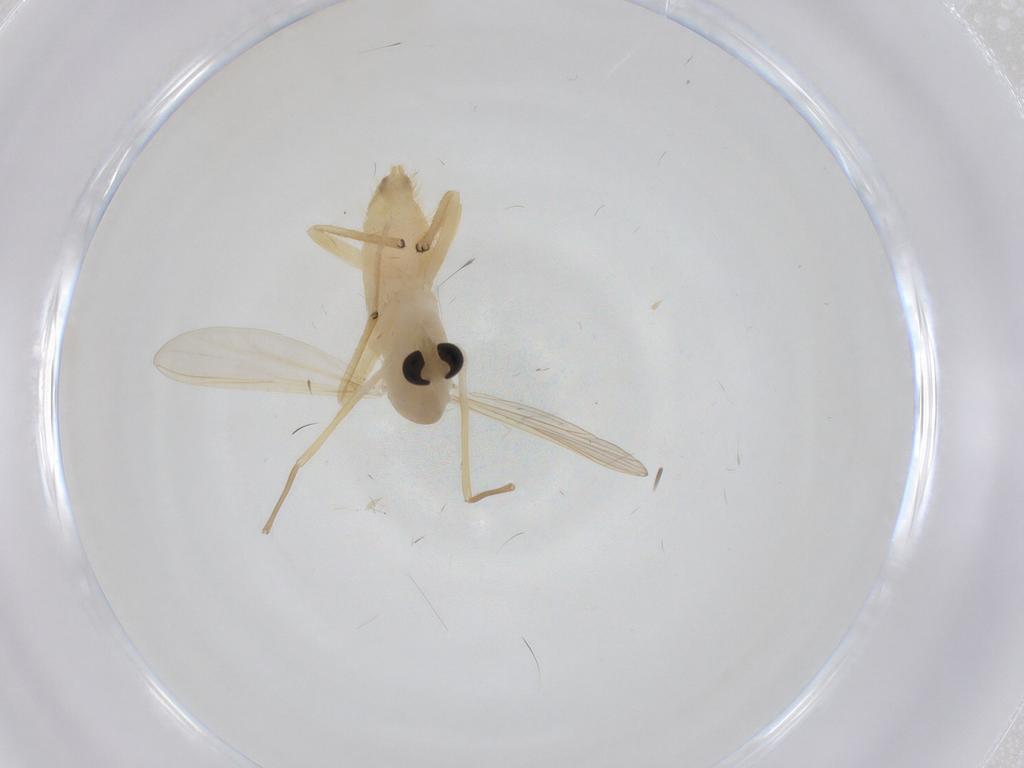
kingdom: Animalia
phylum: Arthropoda
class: Insecta
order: Diptera
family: Chironomidae
